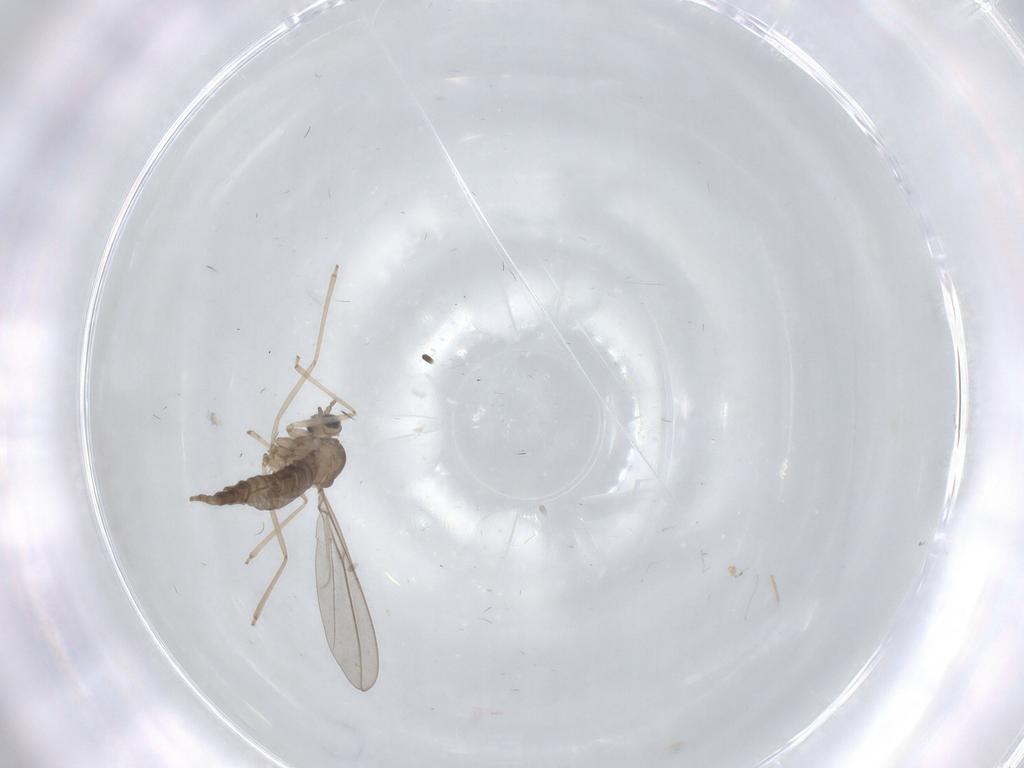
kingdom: Animalia
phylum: Arthropoda
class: Insecta
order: Diptera
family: Cecidomyiidae
